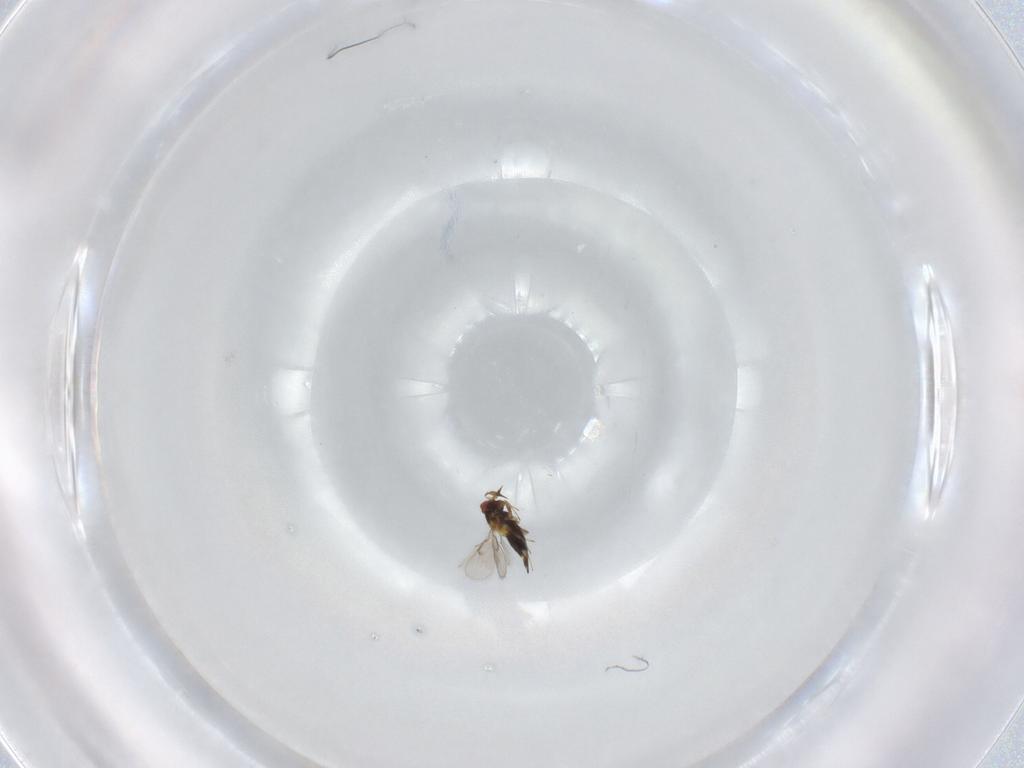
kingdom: Animalia
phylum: Arthropoda
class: Insecta
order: Hymenoptera
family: Trichogrammatidae
